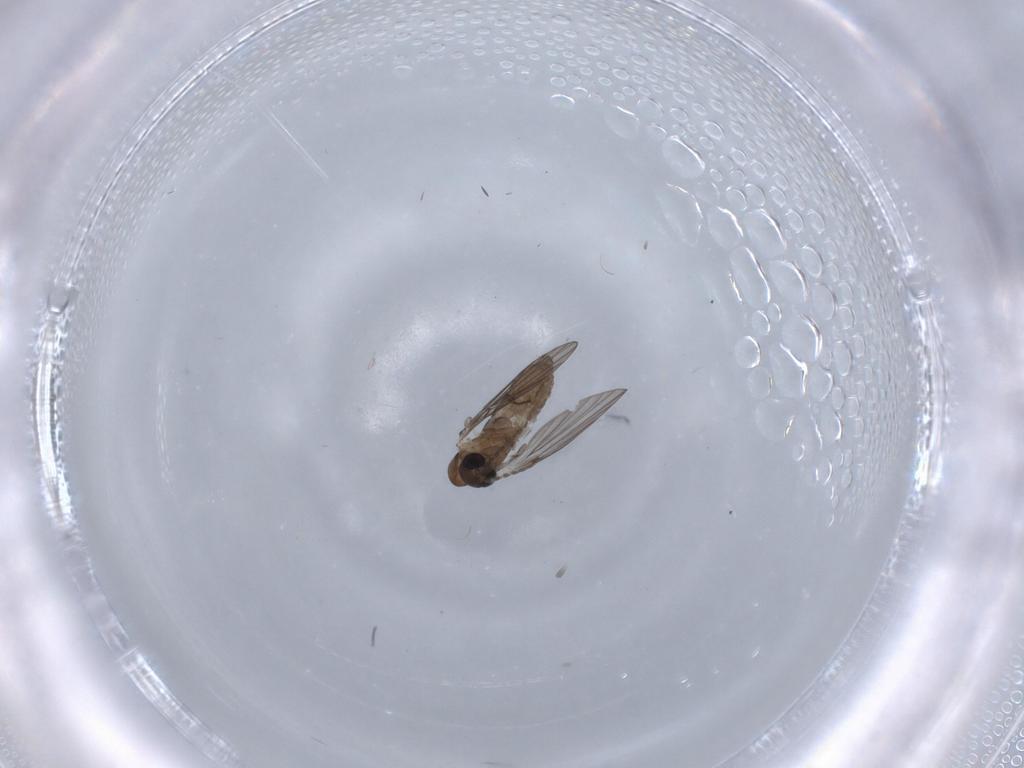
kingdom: Animalia
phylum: Arthropoda
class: Insecta
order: Diptera
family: Psychodidae
